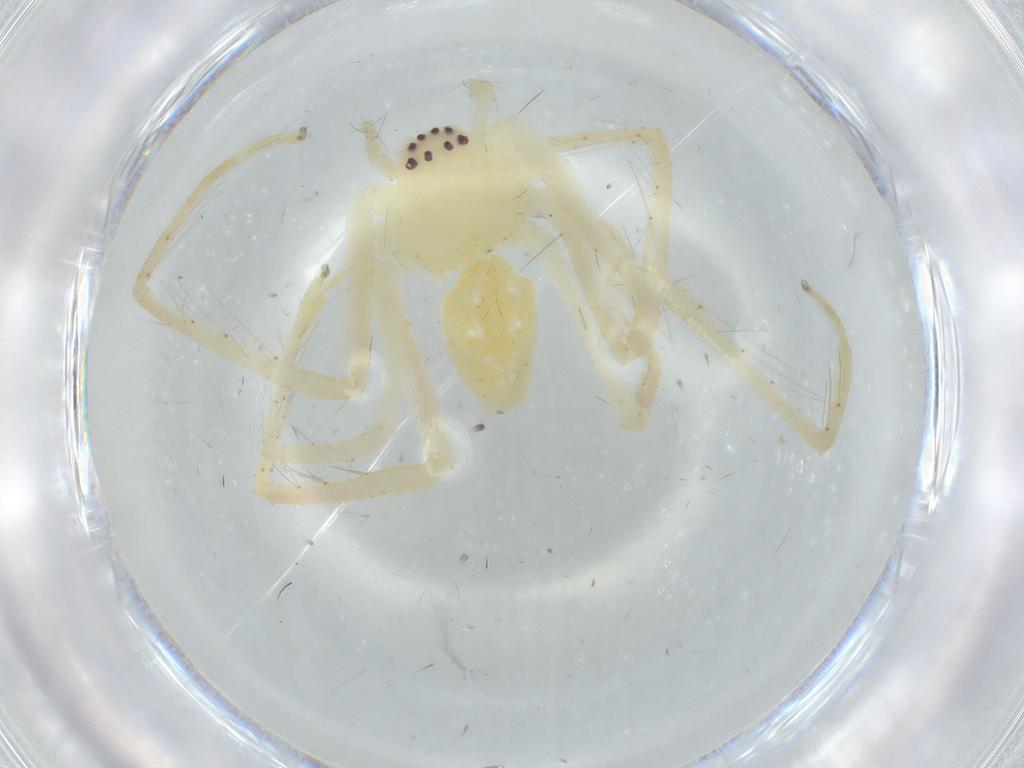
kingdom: Animalia
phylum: Arthropoda
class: Arachnida
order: Araneae
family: Sparassidae
